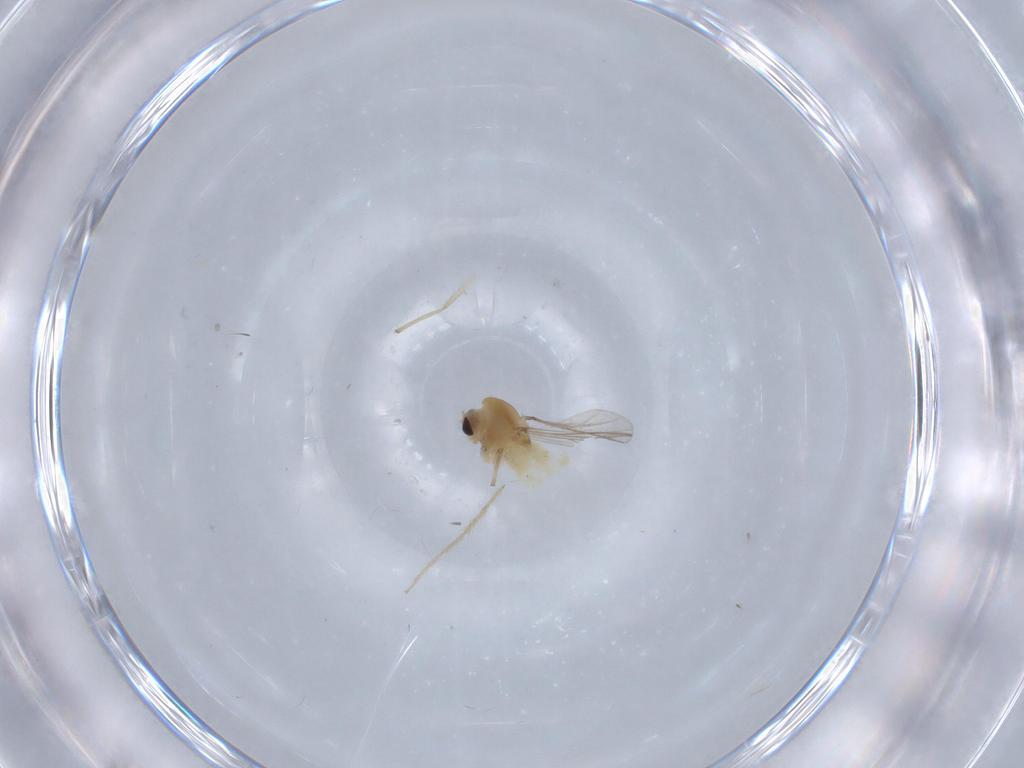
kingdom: Animalia
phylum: Arthropoda
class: Insecta
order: Diptera
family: Chironomidae
